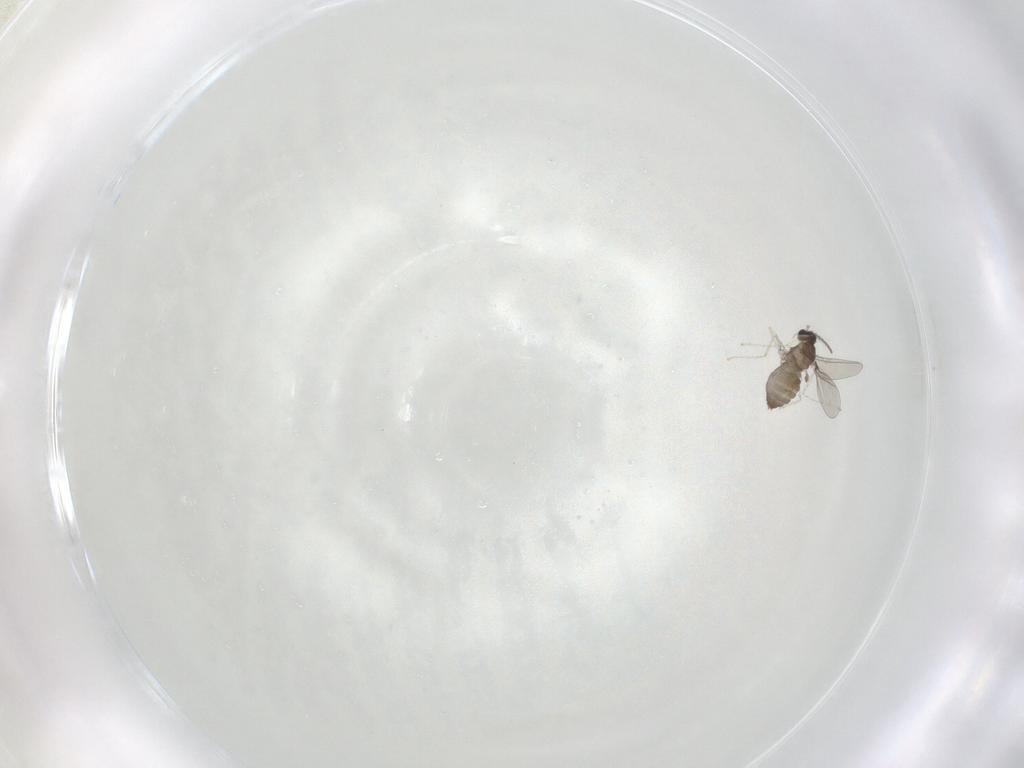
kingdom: Animalia
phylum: Arthropoda
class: Insecta
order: Diptera
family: Cecidomyiidae
